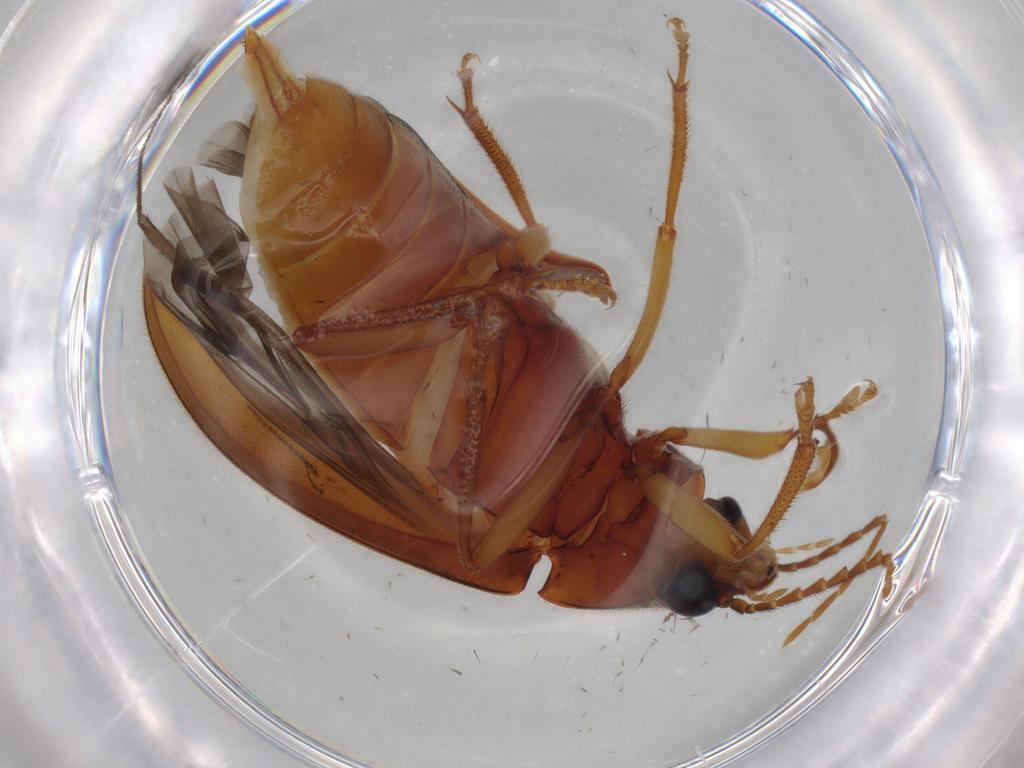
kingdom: Animalia
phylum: Arthropoda
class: Insecta
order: Coleoptera
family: Ptilodactylidae
